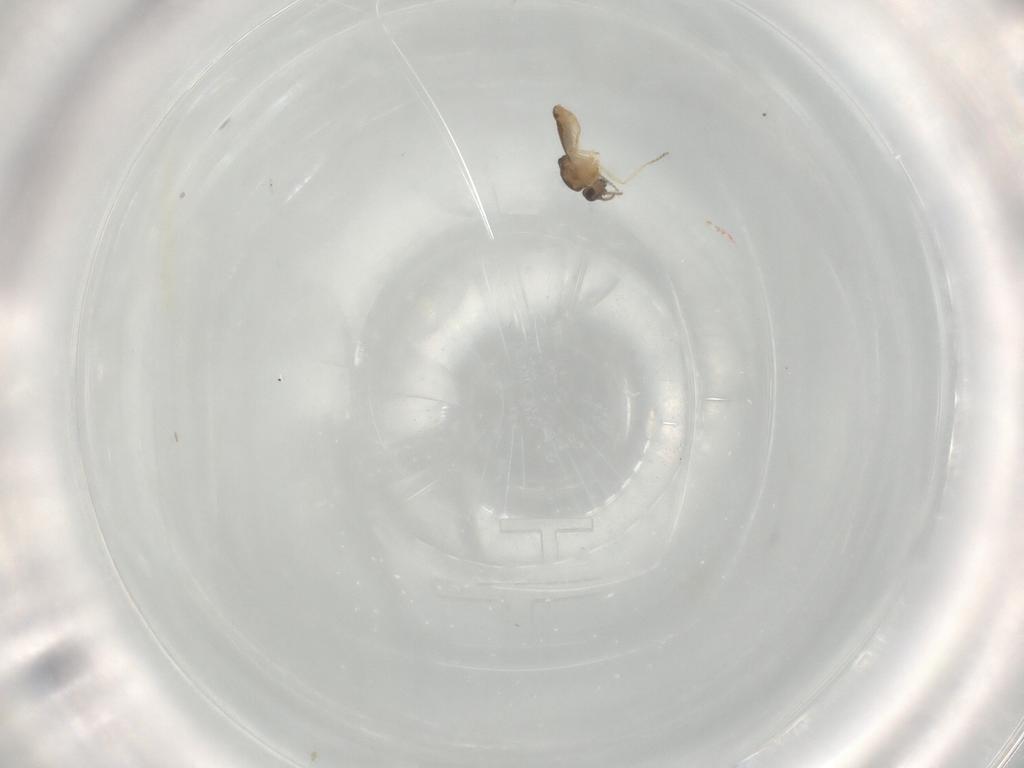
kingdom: Animalia
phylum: Arthropoda
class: Insecta
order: Diptera
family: Ceratopogonidae
